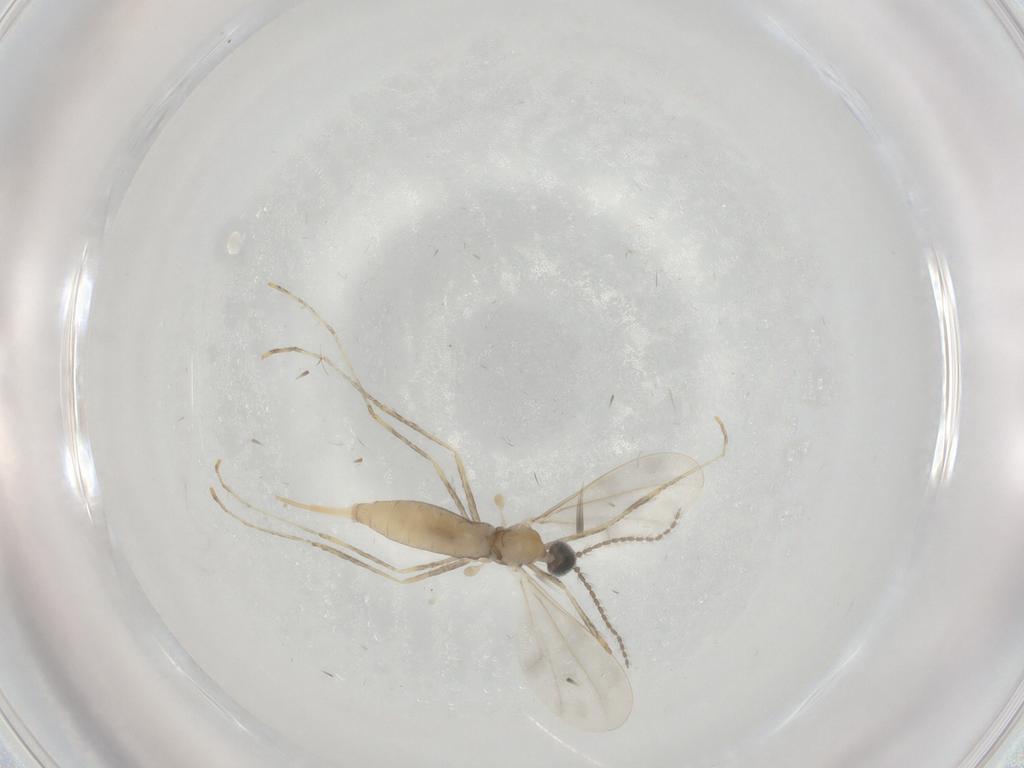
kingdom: Animalia
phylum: Arthropoda
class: Insecta
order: Diptera
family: Cecidomyiidae
